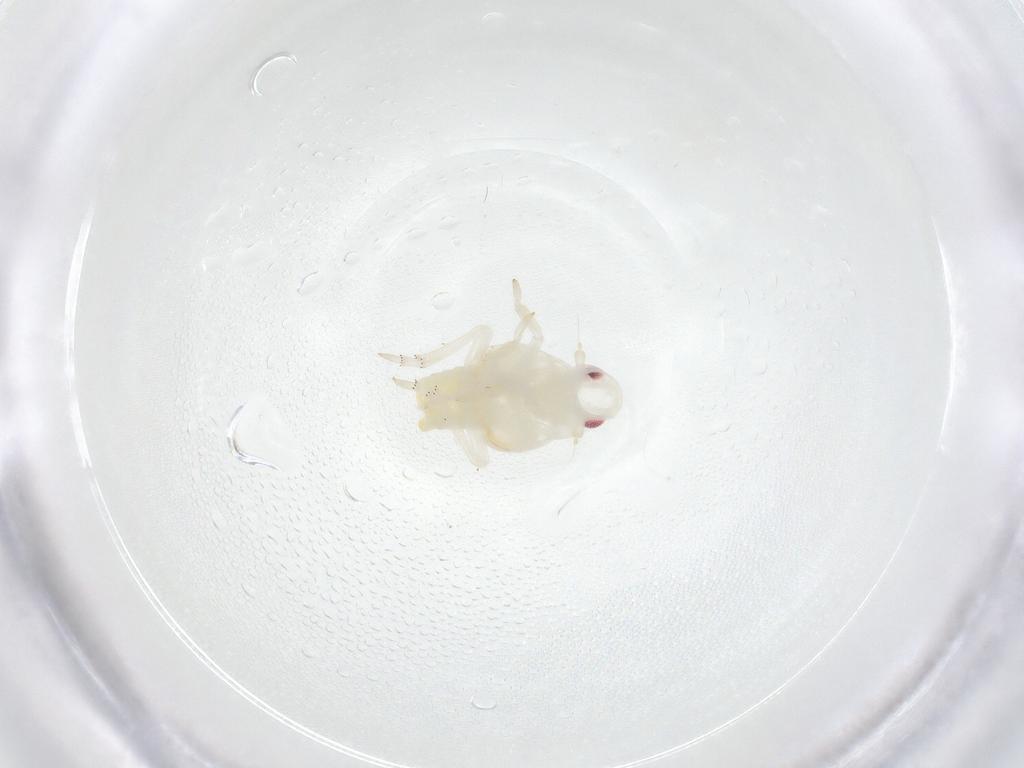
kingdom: Animalia
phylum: Arthropoda
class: Insecta
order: Hemiptera
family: Flatidae
